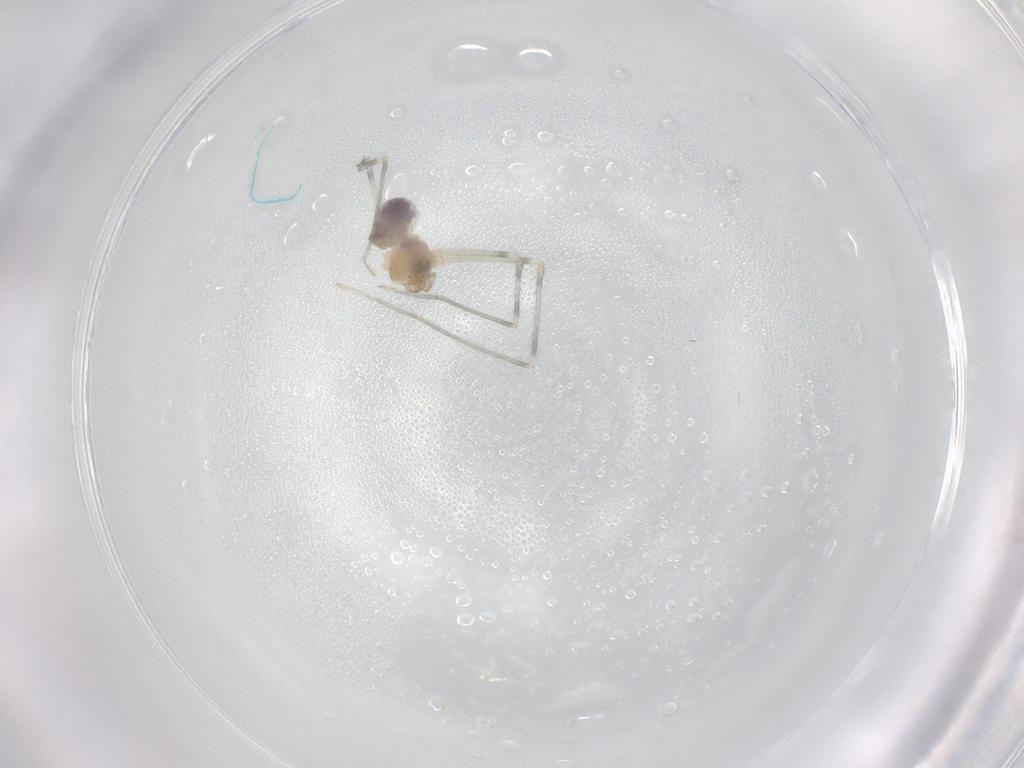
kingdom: Animalia
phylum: Arthropoda
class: Arachnida
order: Araneae
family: Pholcidae
